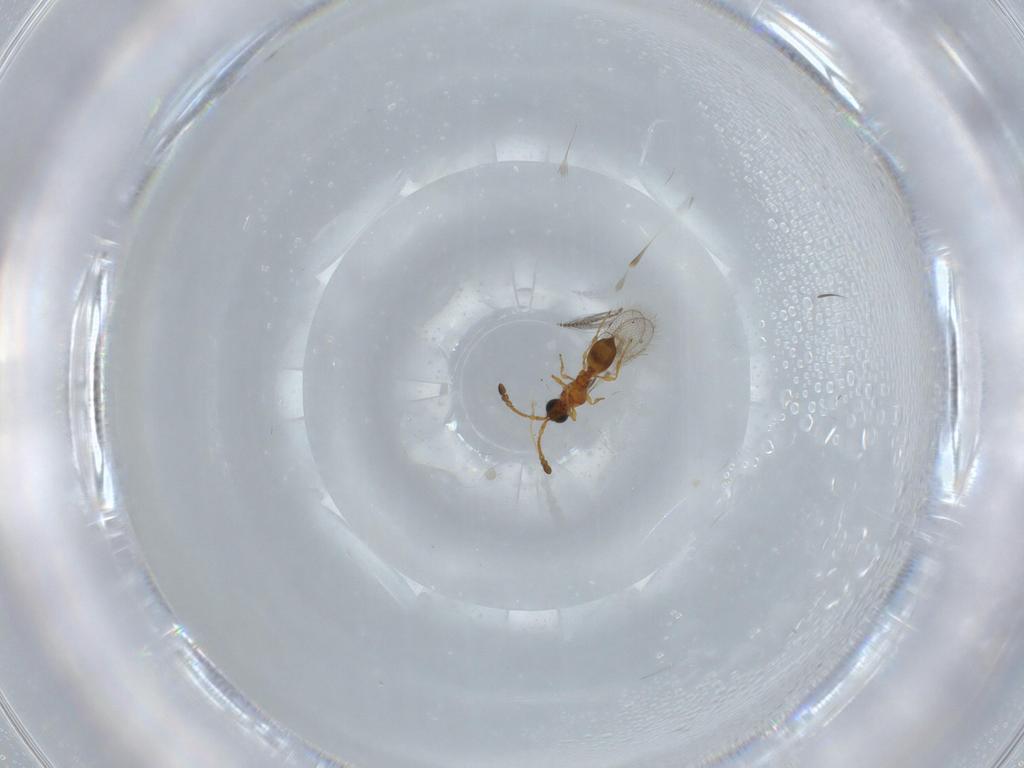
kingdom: Animalia
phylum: Arthropoda
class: Insecta
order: Hymenoptera
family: Diapriidae
